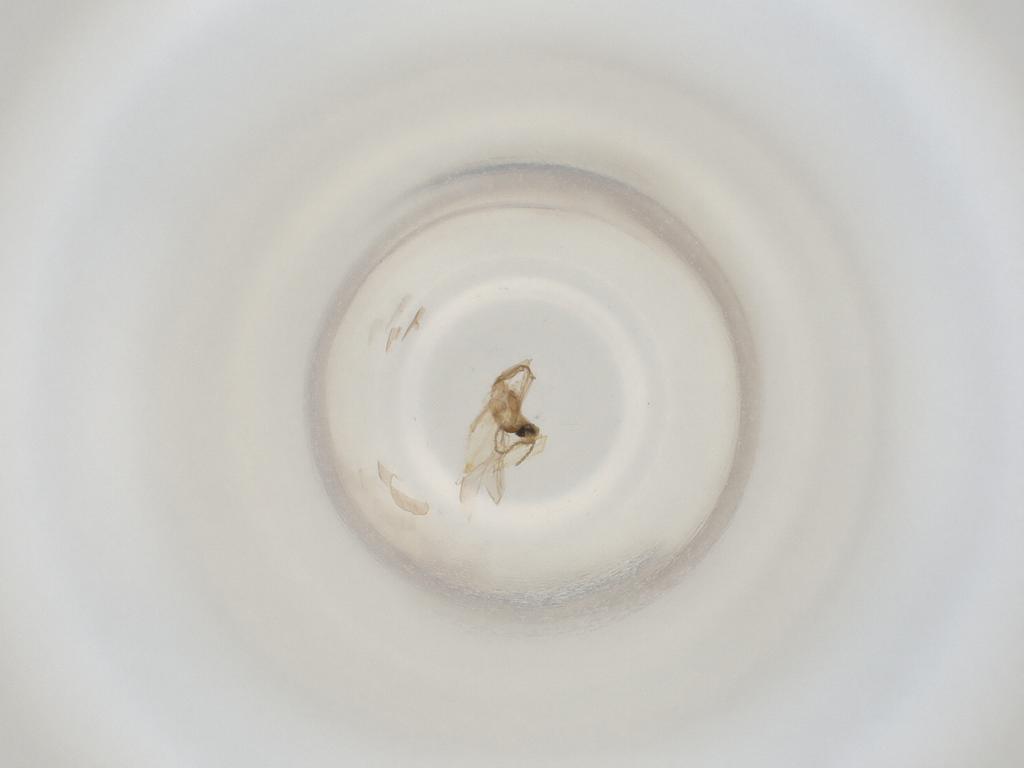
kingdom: Animalia
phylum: Arthropoda
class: Insecta
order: Diptera
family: Cecidomyiidae
